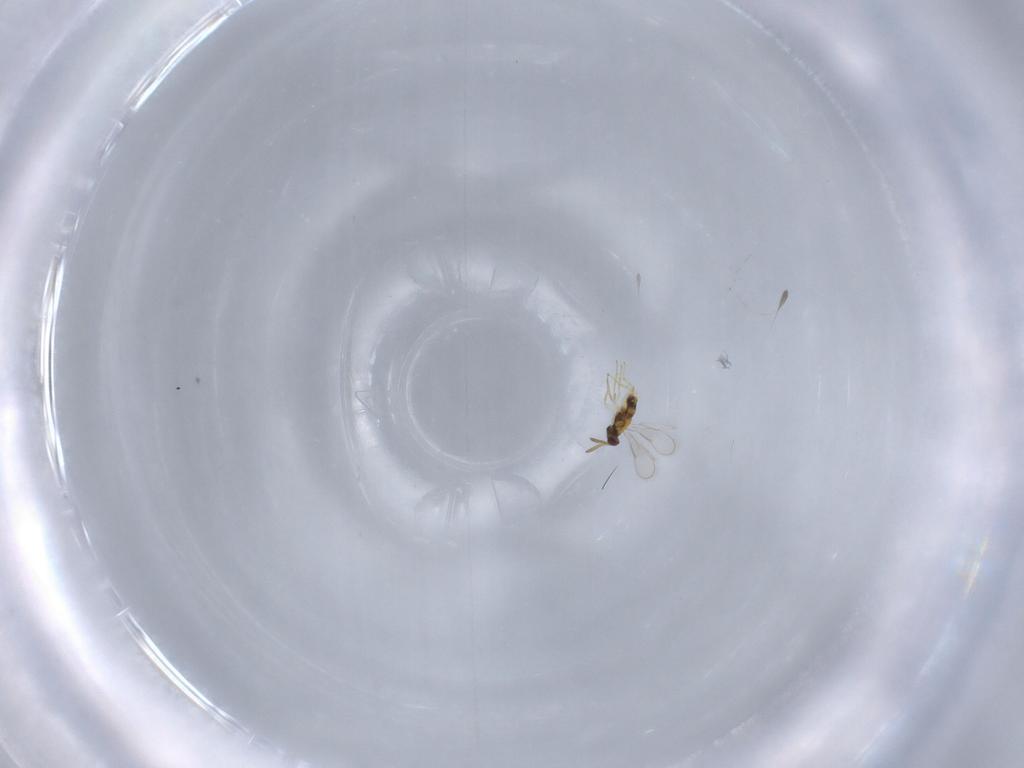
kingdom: Animalia
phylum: Arthropoda
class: Insecta
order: Hymenoptera
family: Aphelinidae
